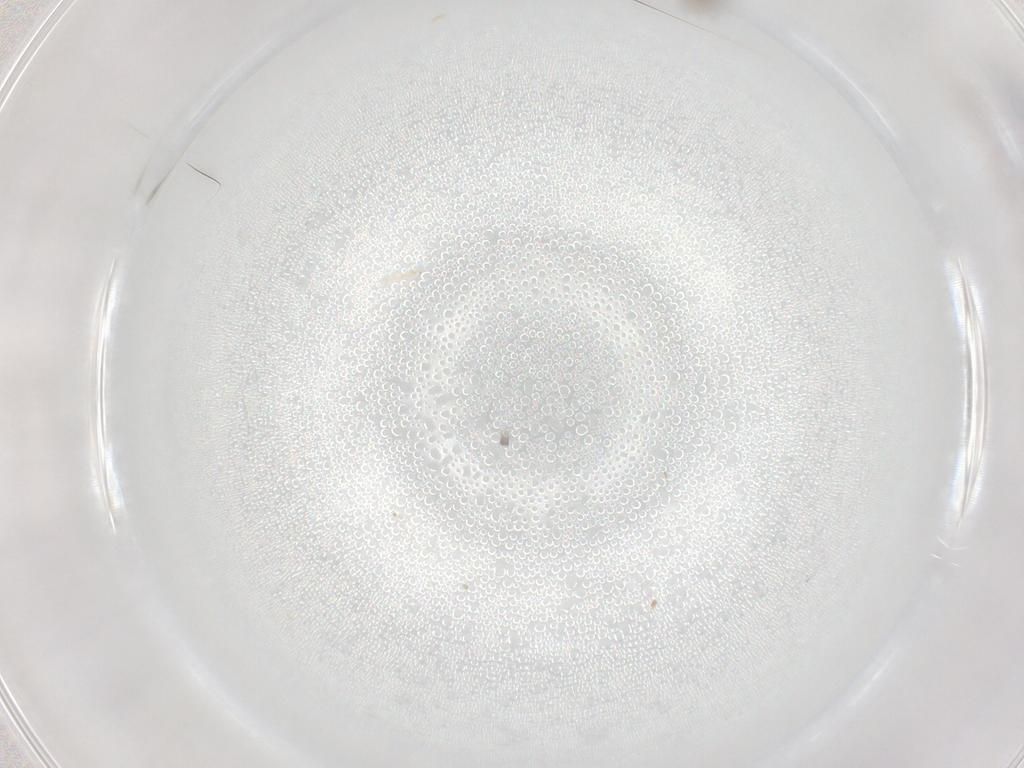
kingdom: Animalia
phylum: Arthropoda
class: Insecta
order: Diptera
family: Cecidomyiidae
